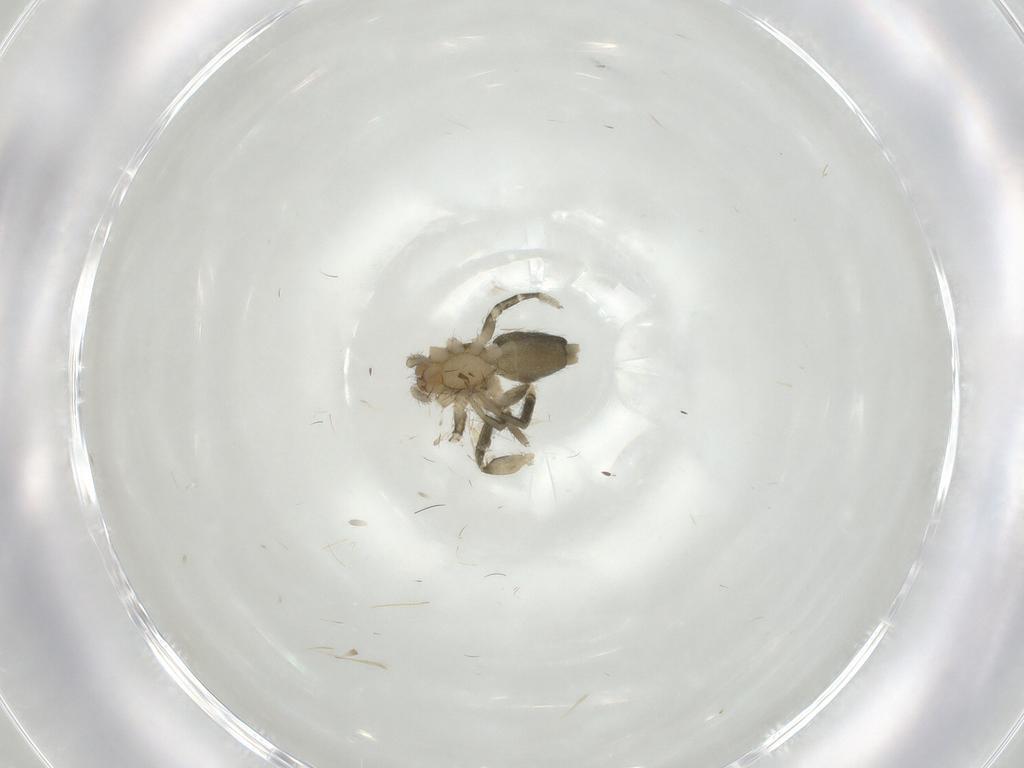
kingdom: Animalia
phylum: Arthropoda
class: Arachnida
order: Araneae
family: Gnaphosidae
